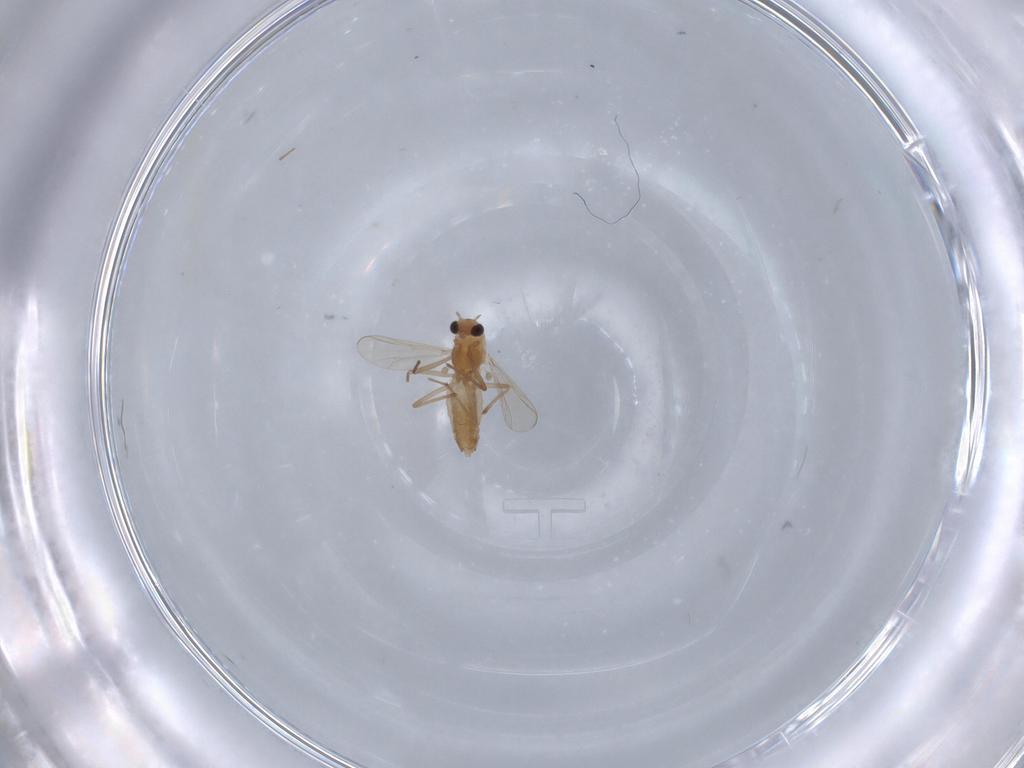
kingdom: Animalia
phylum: Arthropoda
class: Insecta
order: Diptera
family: Chironomidae
